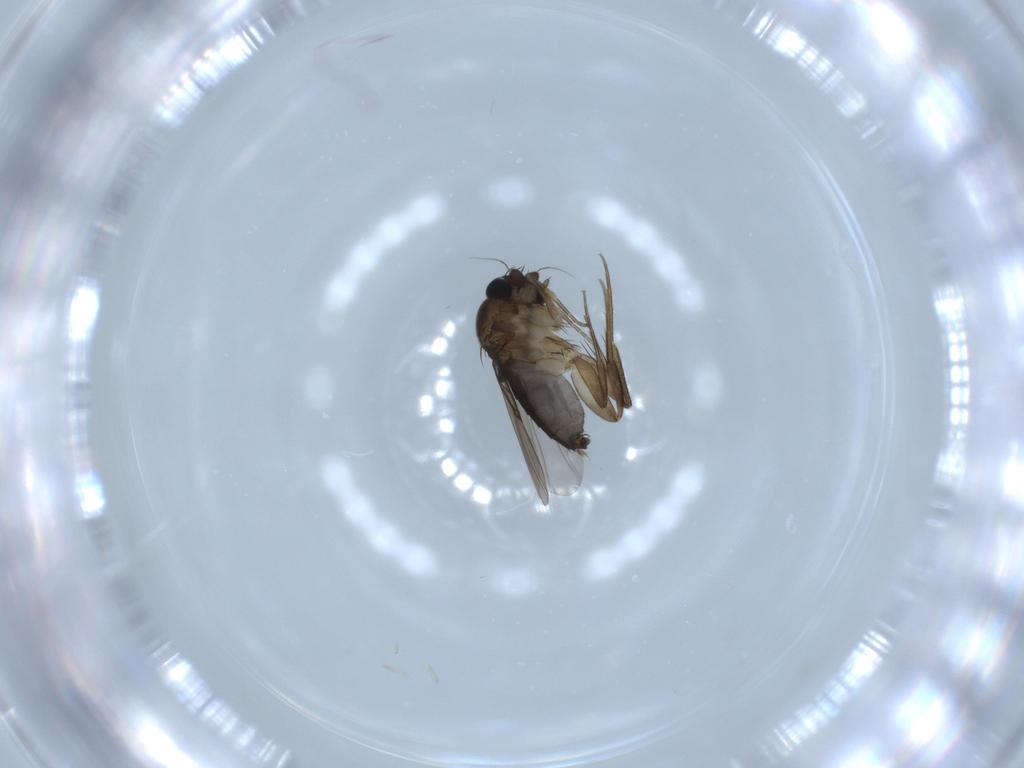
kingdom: Animalia
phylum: Arthropoda
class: Insecta
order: Diptera
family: Phoridae
